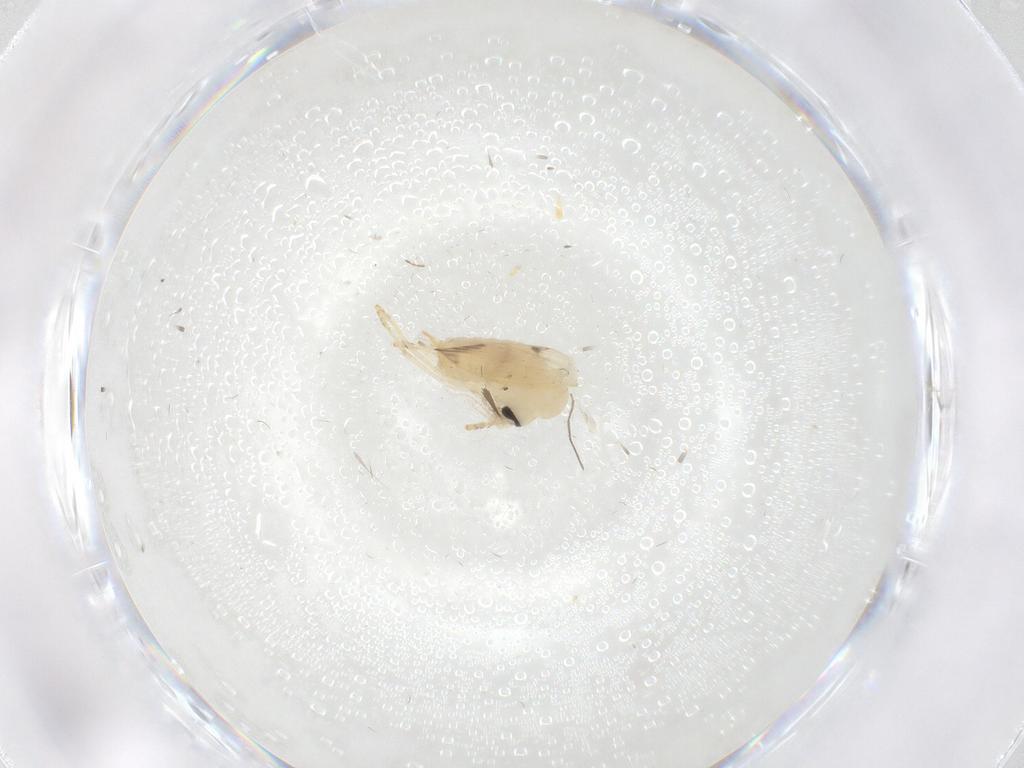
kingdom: Animalia
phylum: Arthropoda
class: Insecta
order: Diptera
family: Psychodidae
